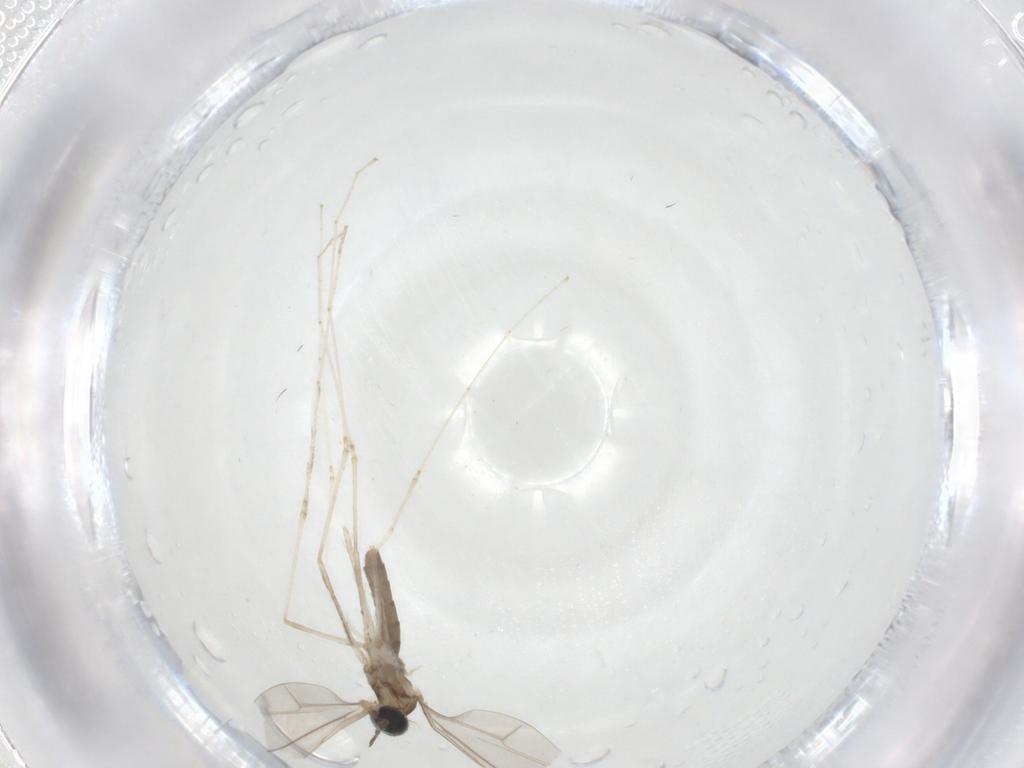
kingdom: Animalia
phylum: Arthropoda
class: Insecta
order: Diptera
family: Cecidomyiidae
